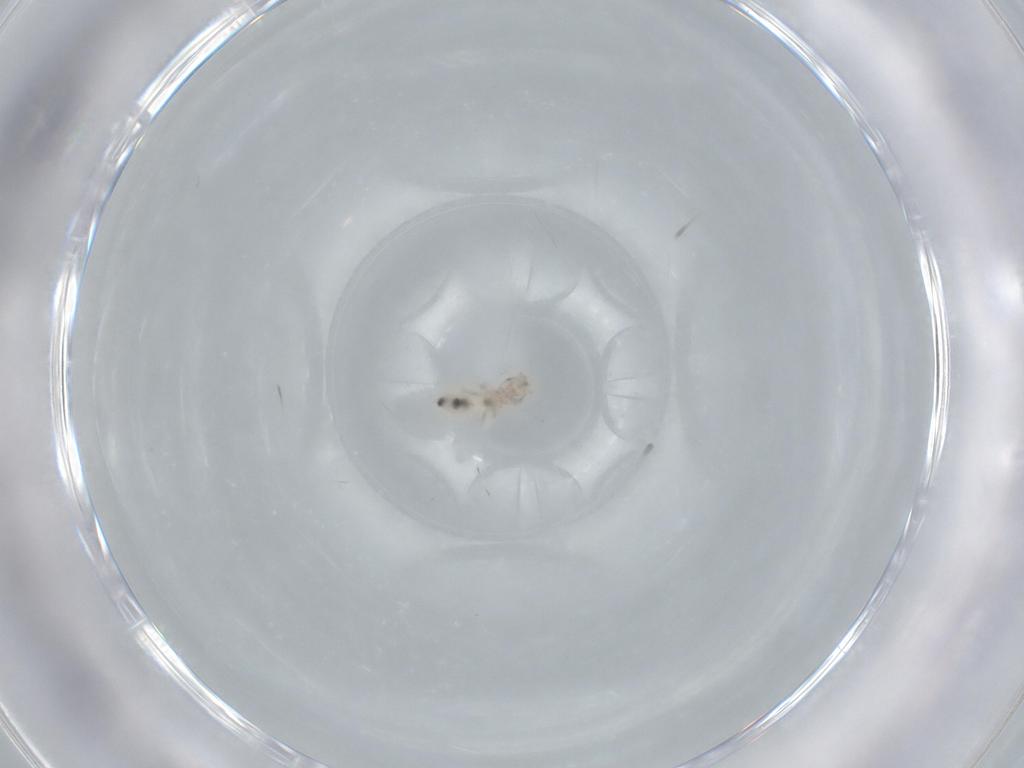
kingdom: Animalia
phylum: Arthropoda
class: Insecta
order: Psocodea
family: Liposcelididae
